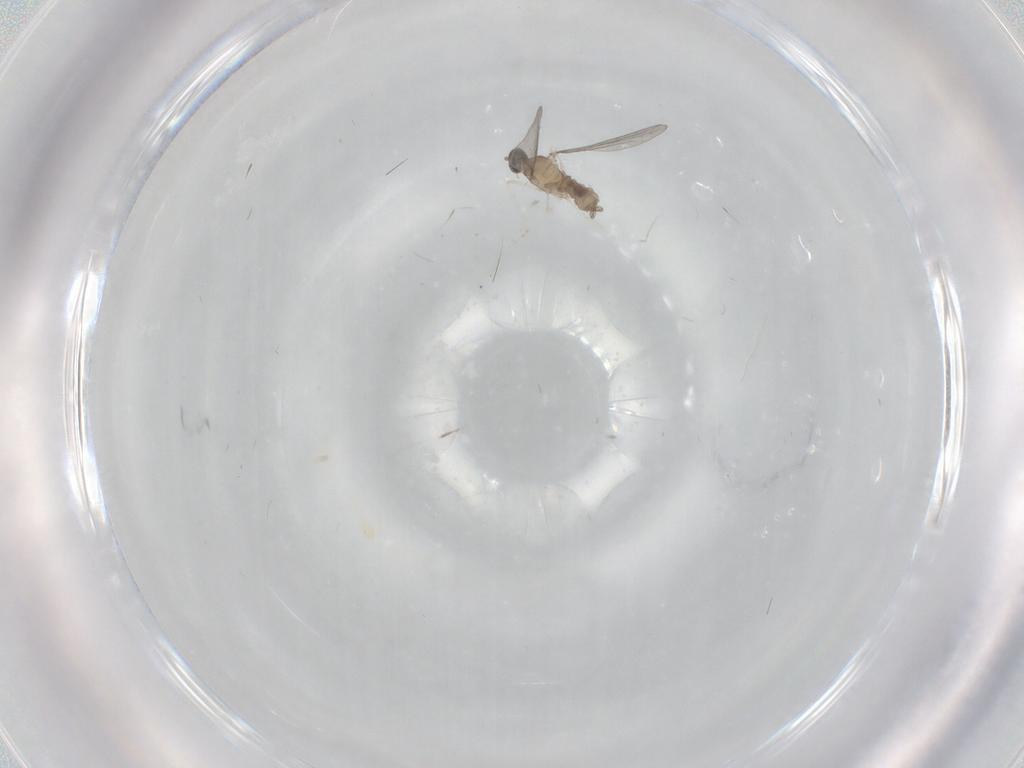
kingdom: Animalia
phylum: Arthropoda
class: Insecta
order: Diptera
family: Cecidomyiidae
